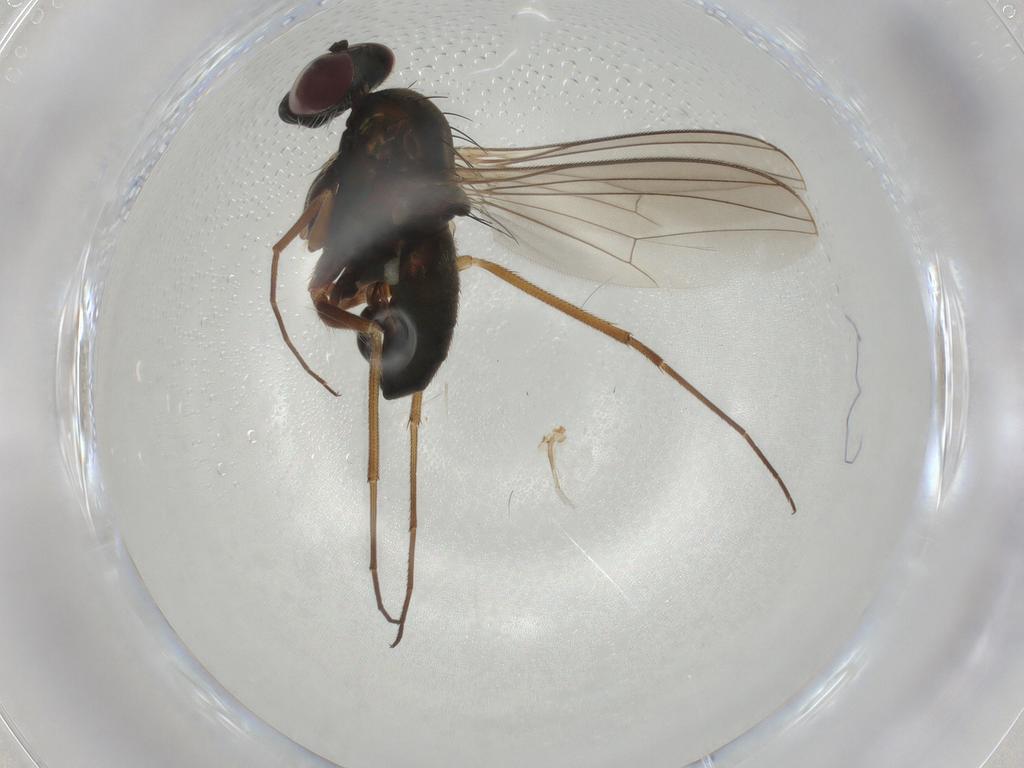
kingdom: Animalia
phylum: Arthropoda
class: Insecta
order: Diptera
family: Dolichopodidae
